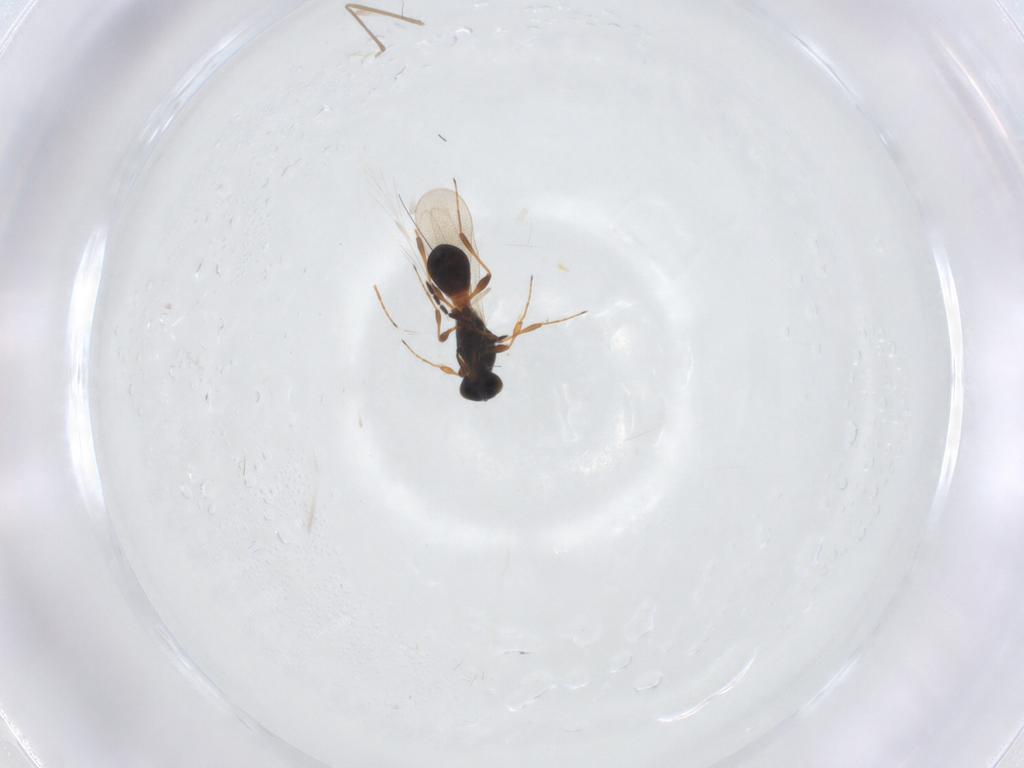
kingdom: Animalia
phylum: Arthropoda
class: Insecta
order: Hymenoptera
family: Platygastridae
